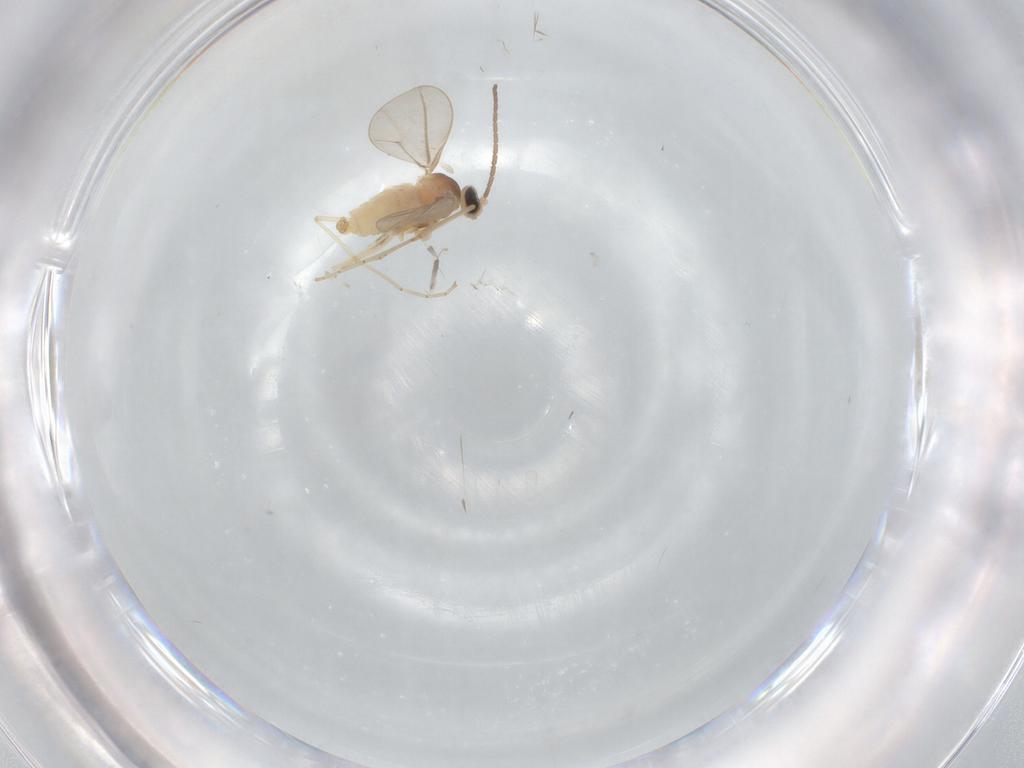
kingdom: Animalia
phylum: Arthropoda
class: Insecta
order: Diptera
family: Cecidomyiidae
